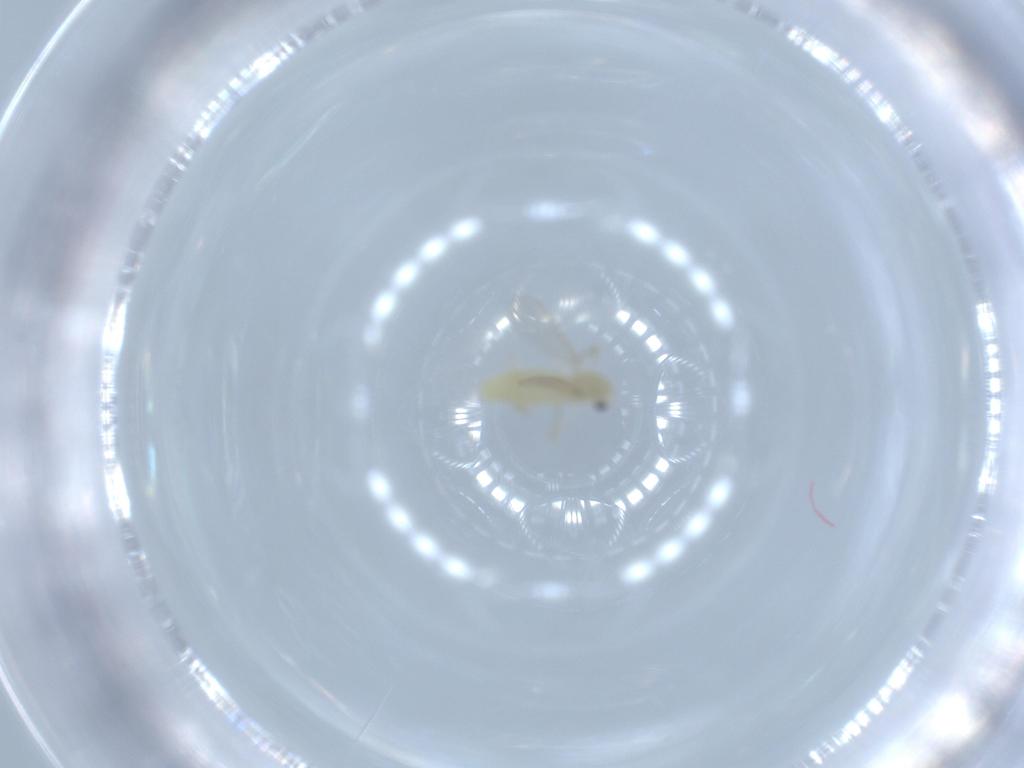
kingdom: Animalia
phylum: Arthropoda
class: Insecta
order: Diptera
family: Chironomidae
